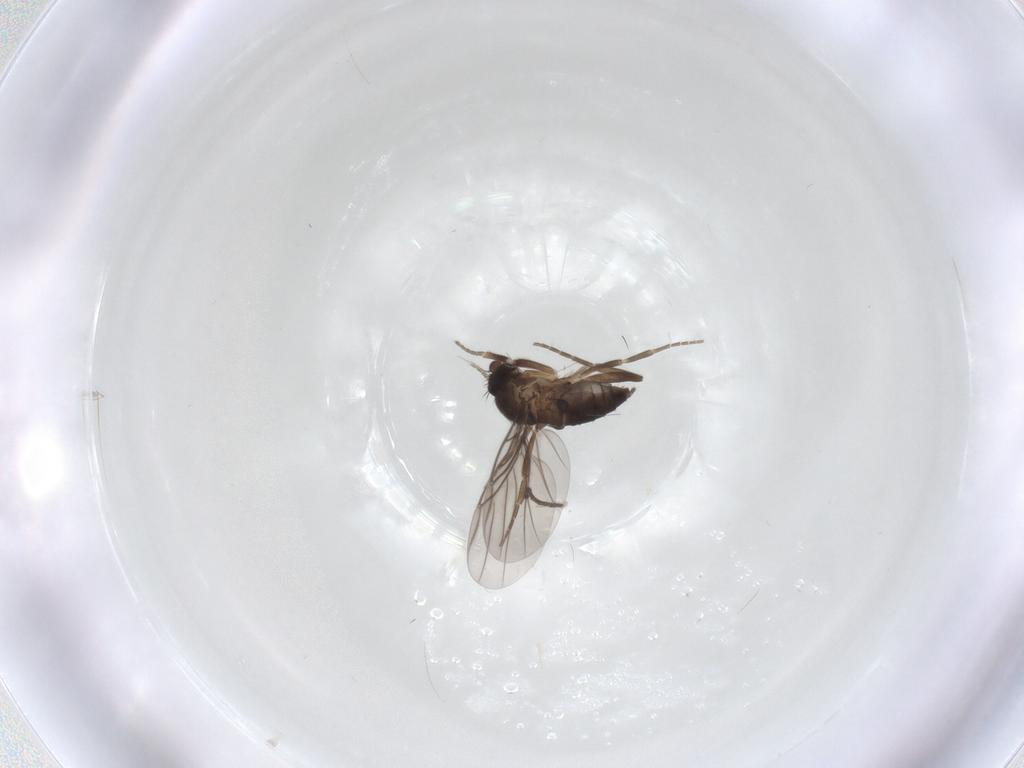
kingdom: Animalia
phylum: Arthropoda
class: Insecta
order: Diptera
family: Sciaridae
